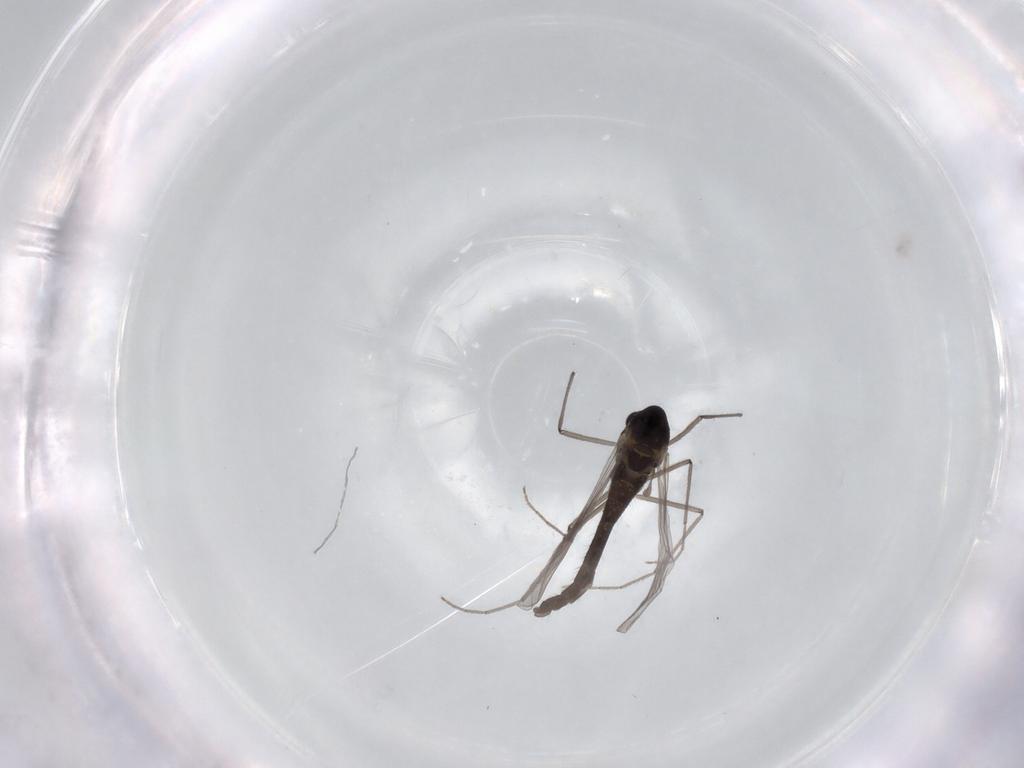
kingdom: Animalia
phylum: Arthropoda
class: Insecta
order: Diptera
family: Chironomidae
